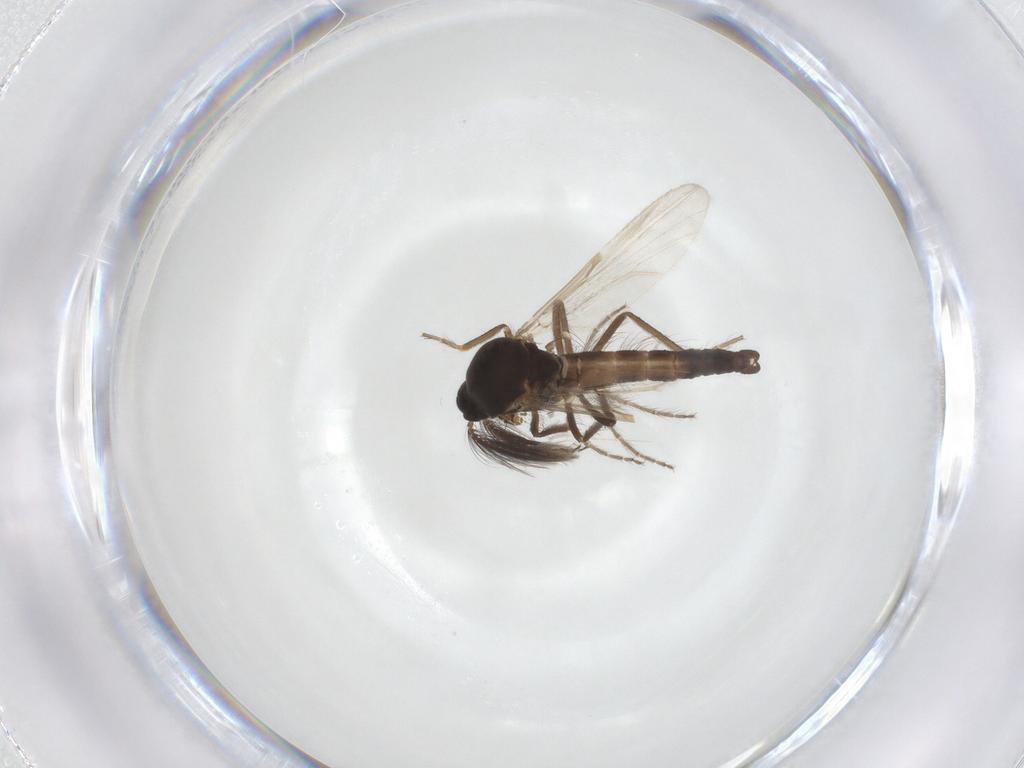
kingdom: Animalia
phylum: Arthropoda
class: Insecta
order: Diptera
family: Ceratopogonidae
